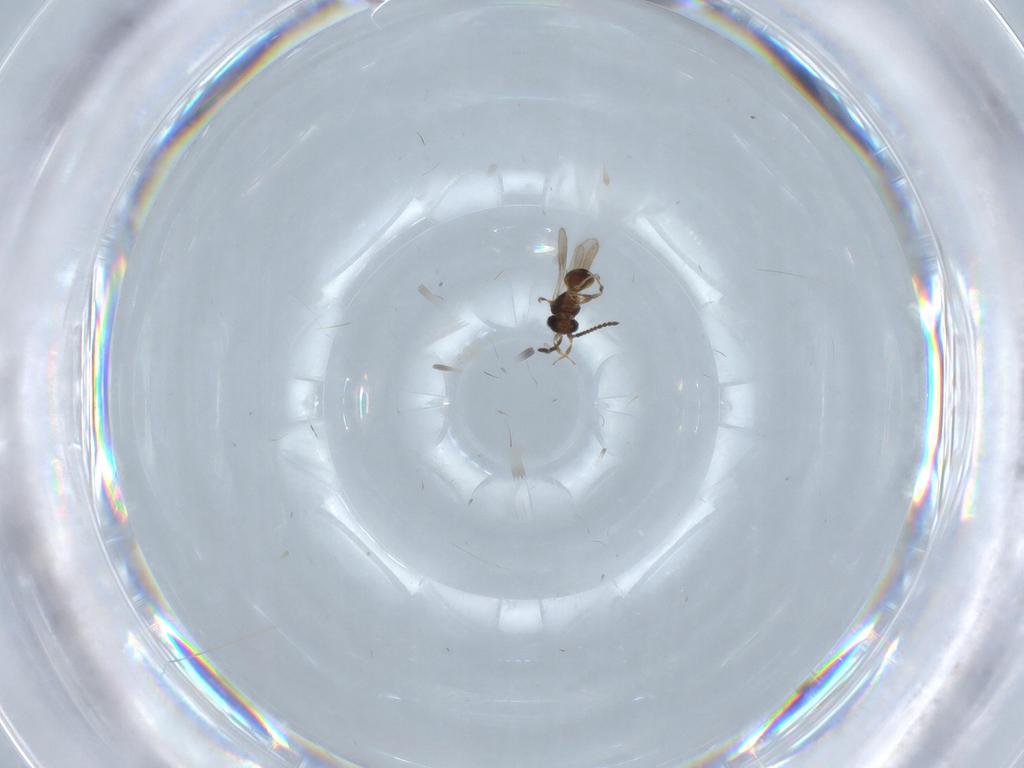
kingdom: Animalia
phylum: Arthropoda
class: Insecta
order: Hymenoptera
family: Scelionidae
